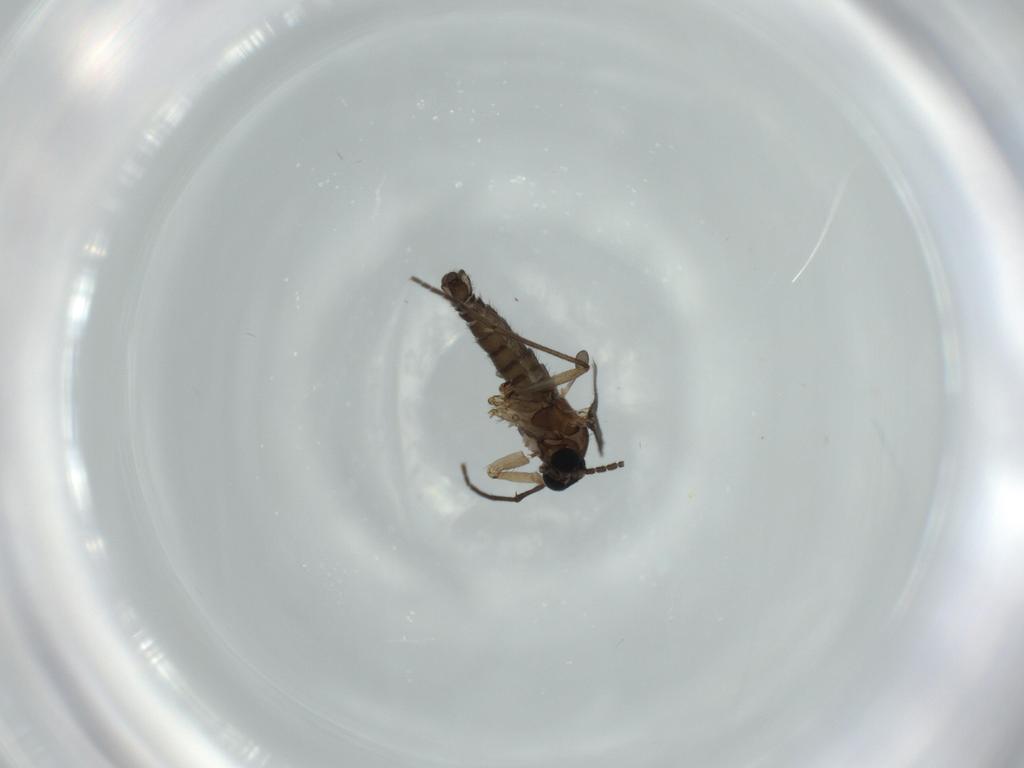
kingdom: Animalia
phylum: Arthropoda
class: Insecta
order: Diptera
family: Sciaridae
